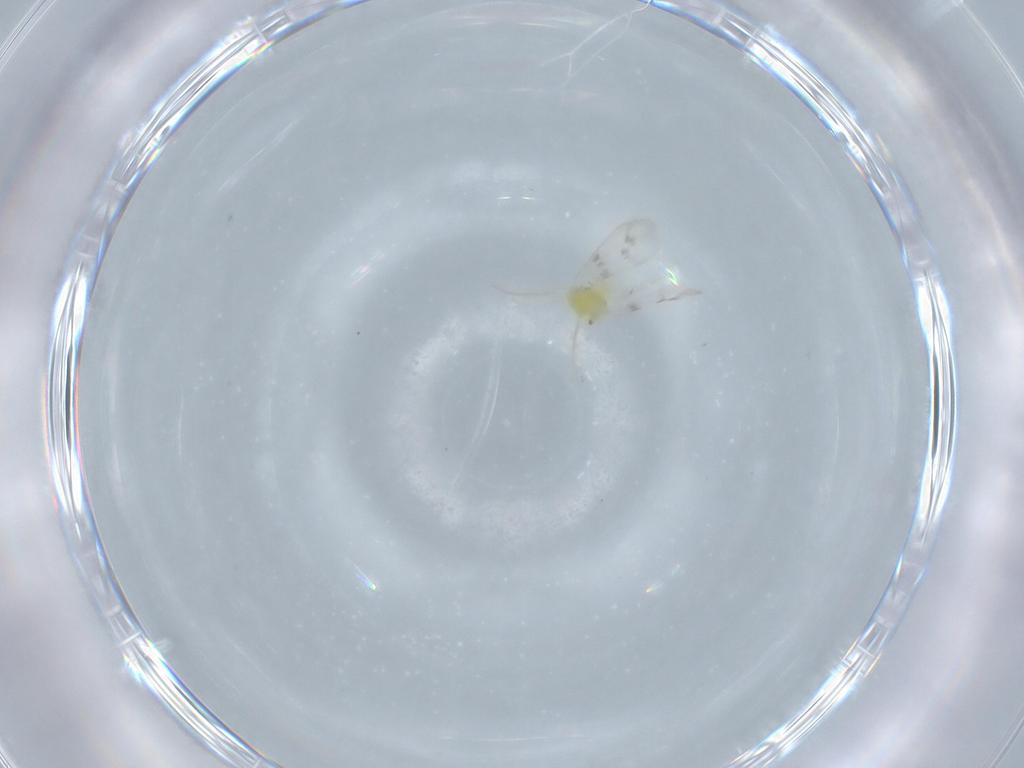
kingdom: Animalia
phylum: Arthropoda
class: Insecta
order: Hemiptera
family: Aleyrodidae
